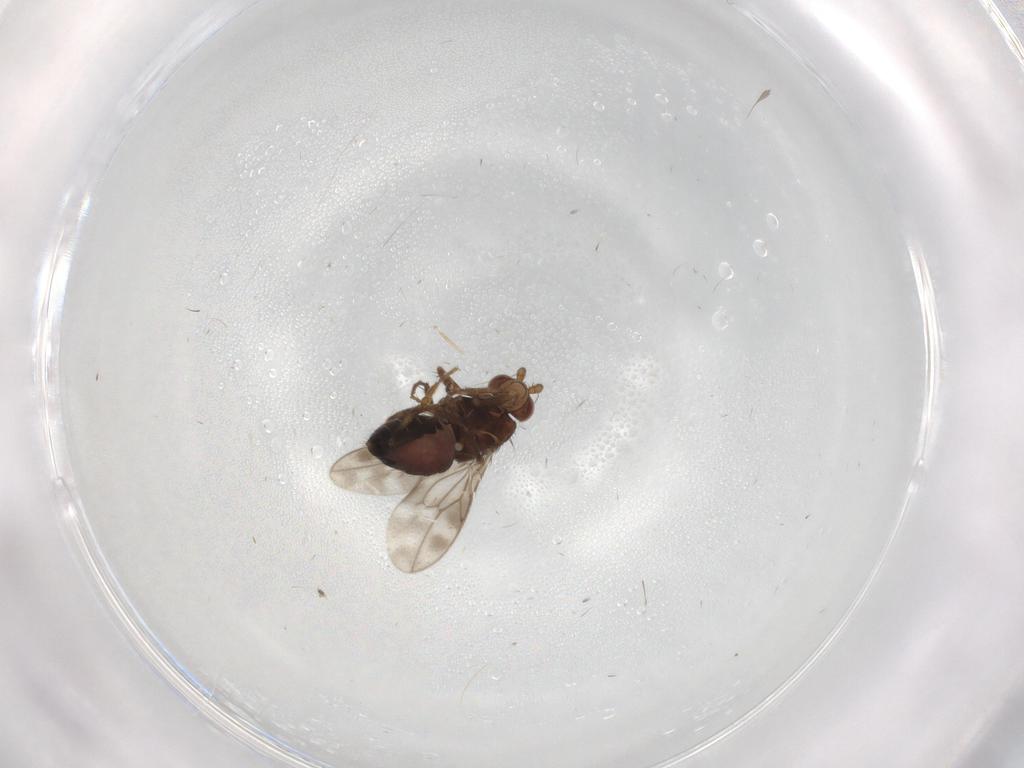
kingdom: Animalia
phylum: Arthropoda
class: Insecta
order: Diptera
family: Sphaeroceridae
